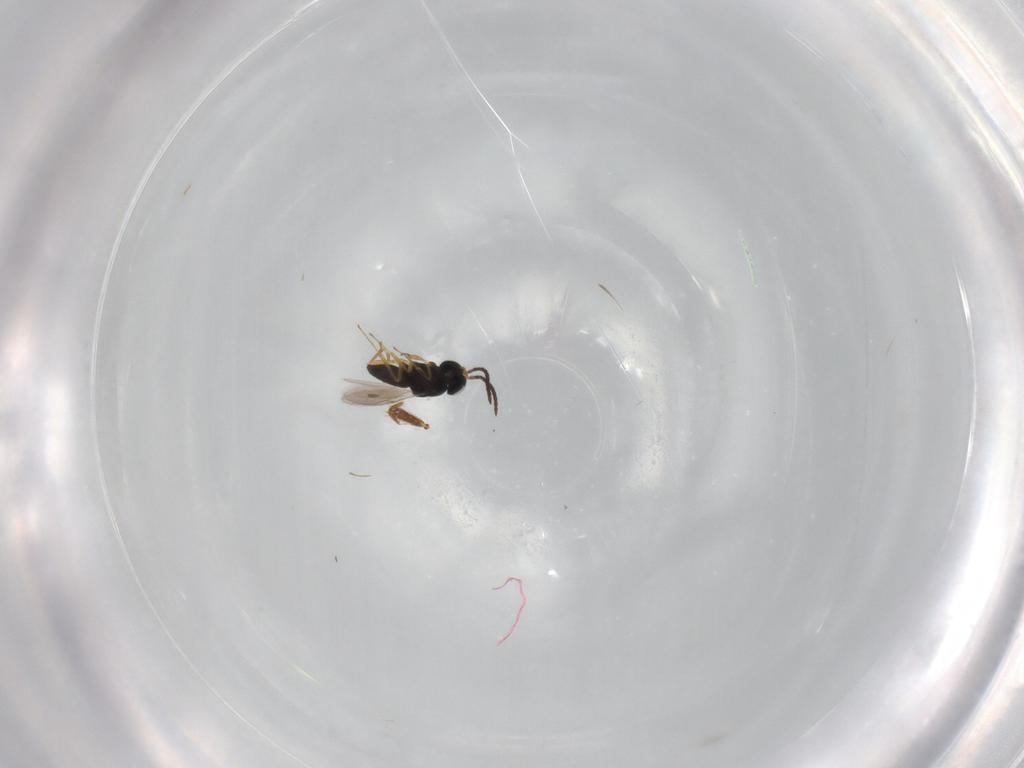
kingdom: Animalia
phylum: Arthropoda
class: Insecta
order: Hymenoptera
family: Formicidae
